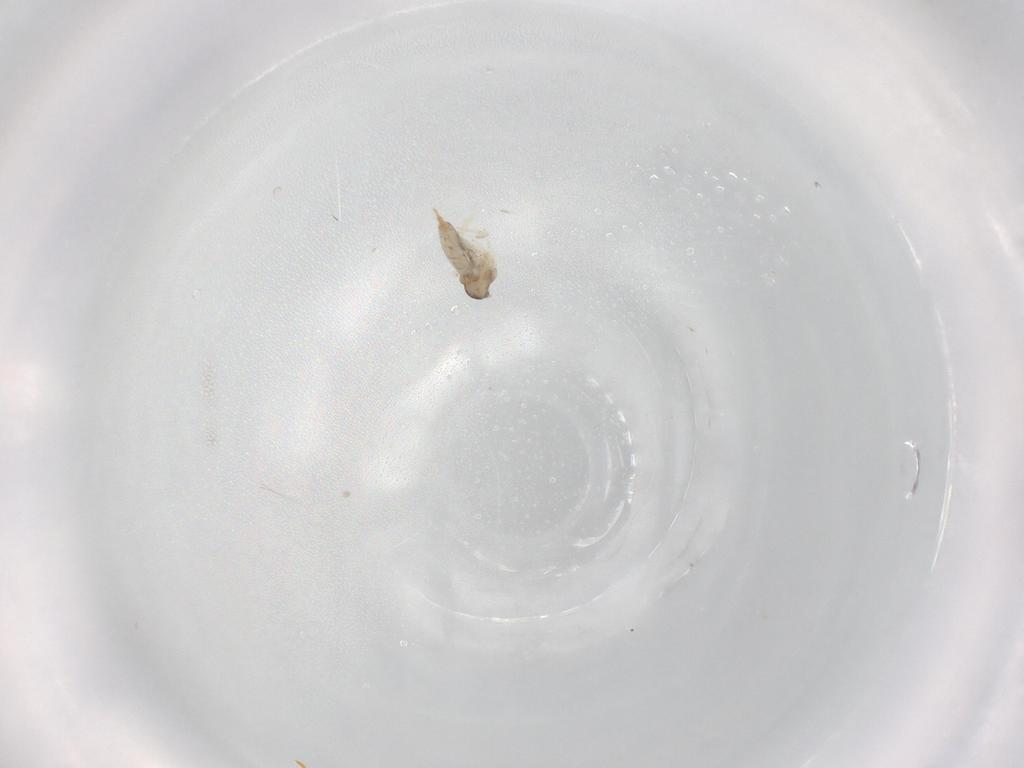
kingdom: Animalia
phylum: Arthropoda
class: Insecta
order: Diptera
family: Cecidomyiidae
